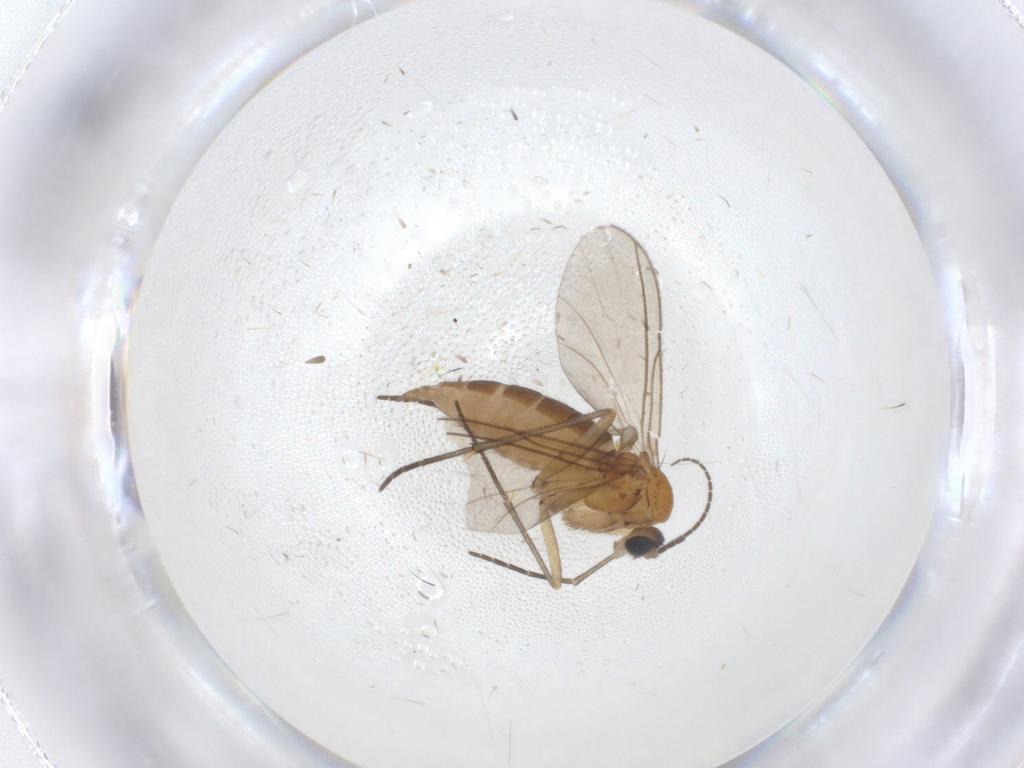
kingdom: Animalia
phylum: Arthropoda
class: Insecta
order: Diptera
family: Sciaridae
